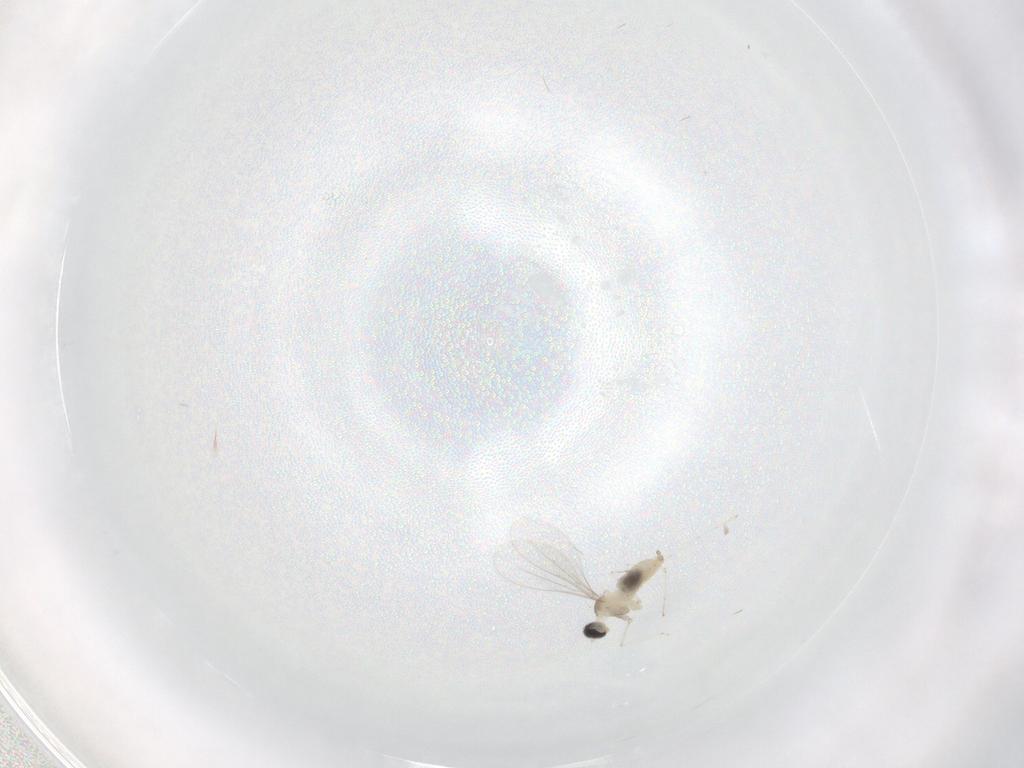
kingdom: Animalia
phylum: Arthropoda
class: Insecta
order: Diptera
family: Cecidomyiidae
